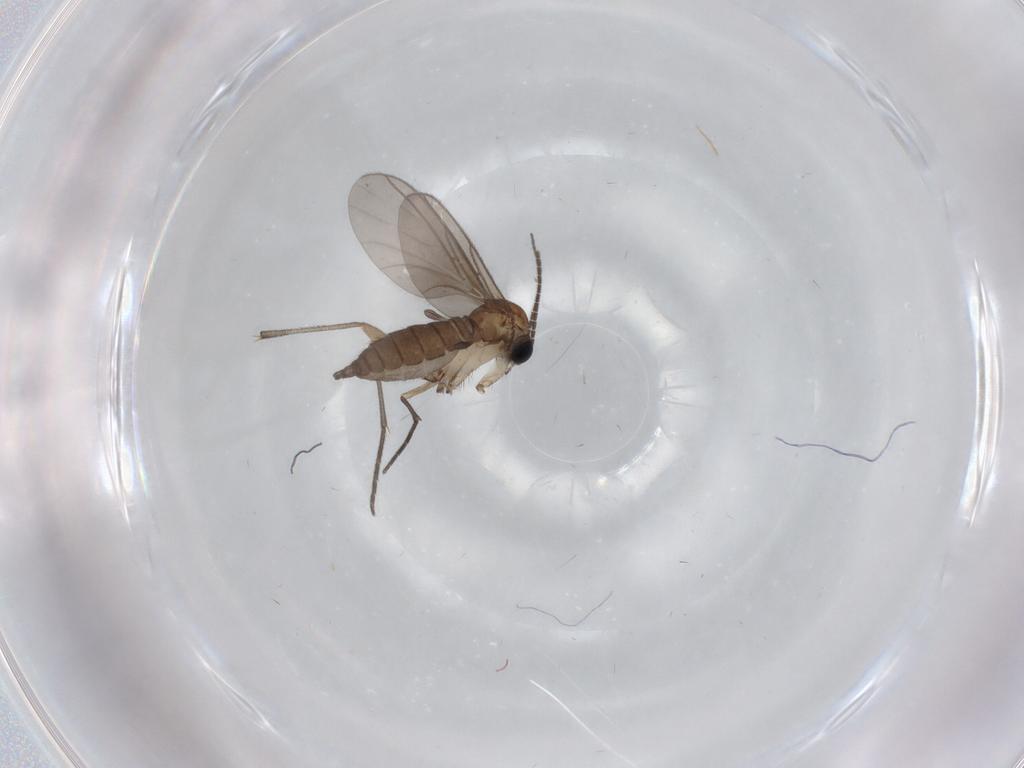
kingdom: Animalia
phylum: Arthropoda
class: Insecta
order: Diptera
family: Sciaridae
